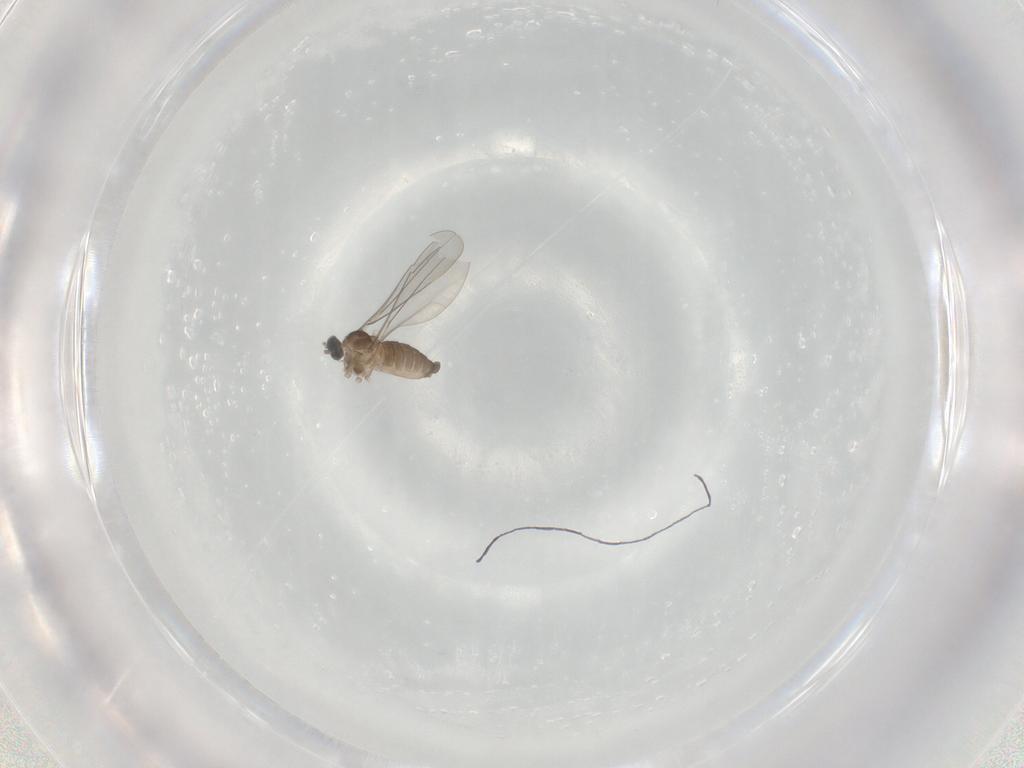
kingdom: Animalia
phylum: Arthropoda
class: Insecta
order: Diptera
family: Cecidomyiidae
